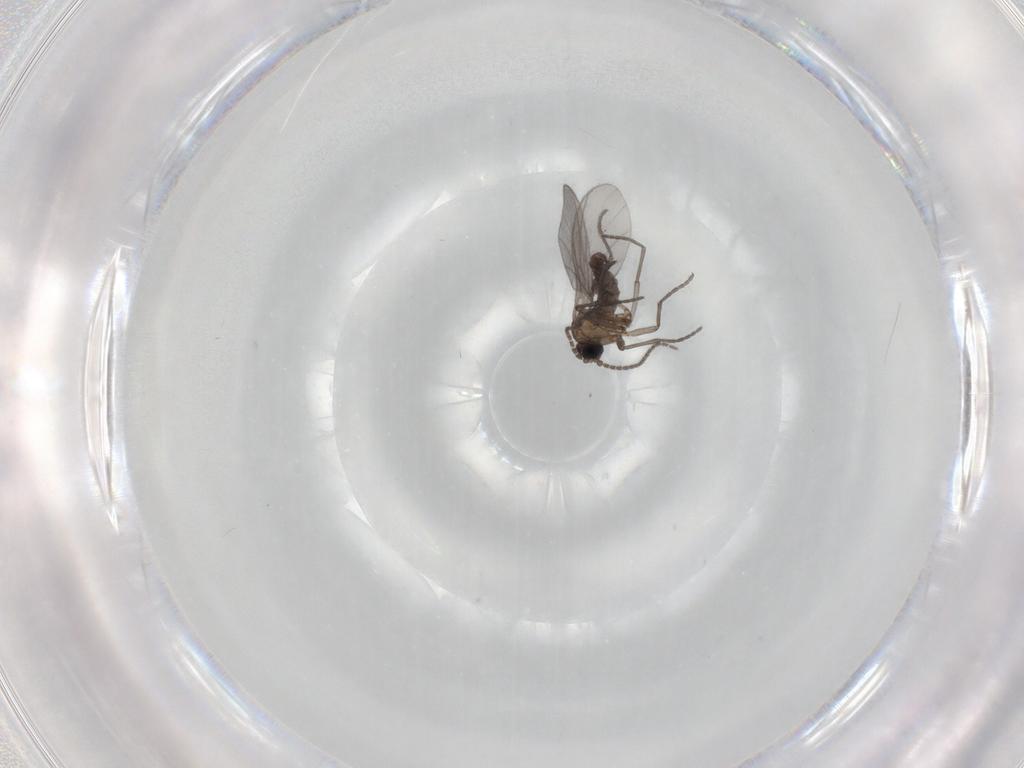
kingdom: Animalia
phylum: Arthropoda
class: Insecta
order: Diptera
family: Sciaridae
